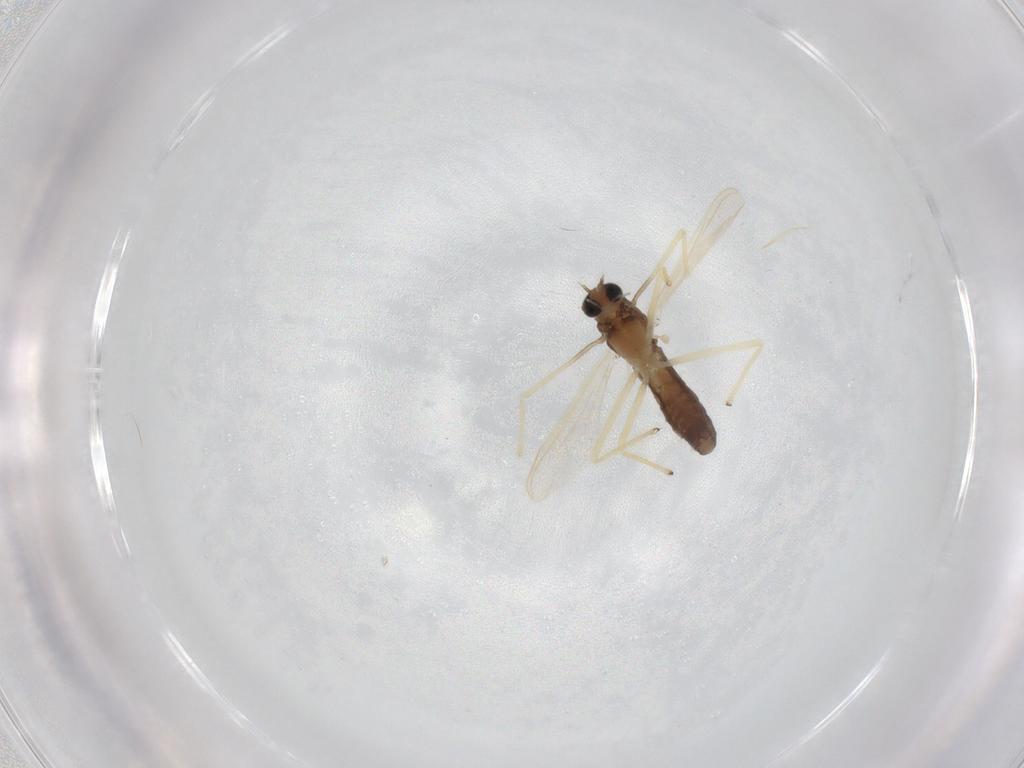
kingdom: Animalia
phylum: Arthropoda
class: Insecta
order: Diptera
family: Chironomidae
